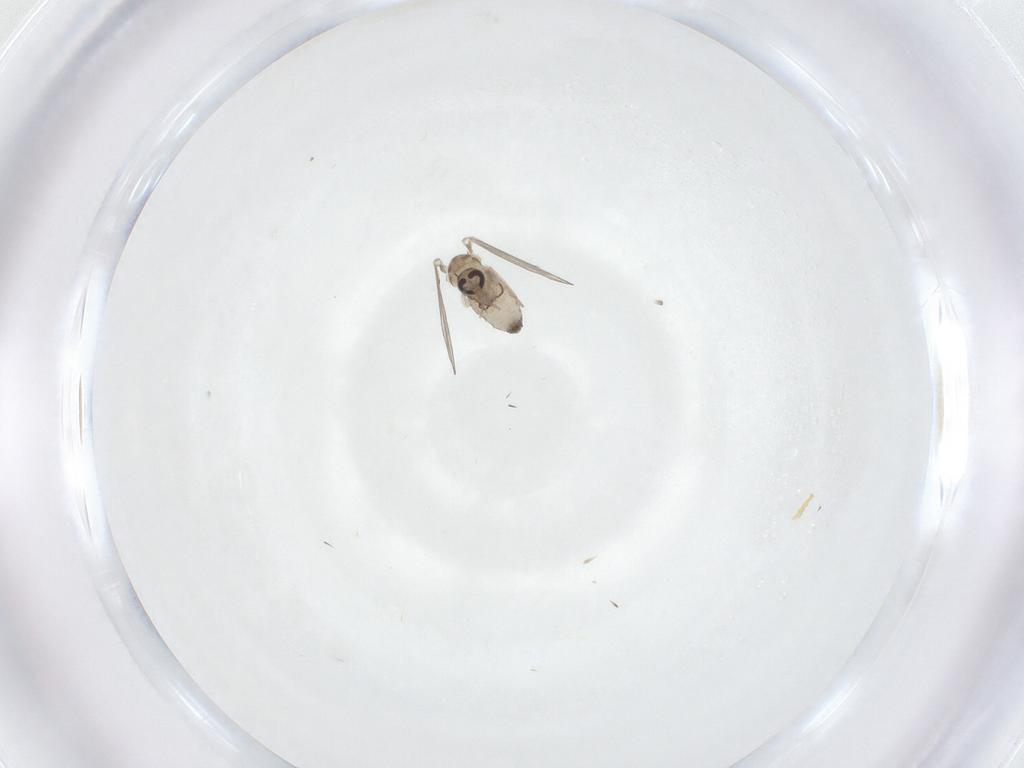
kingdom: Animalia
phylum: Arthropoda
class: Insecta
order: Diptera
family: Psychodidae
